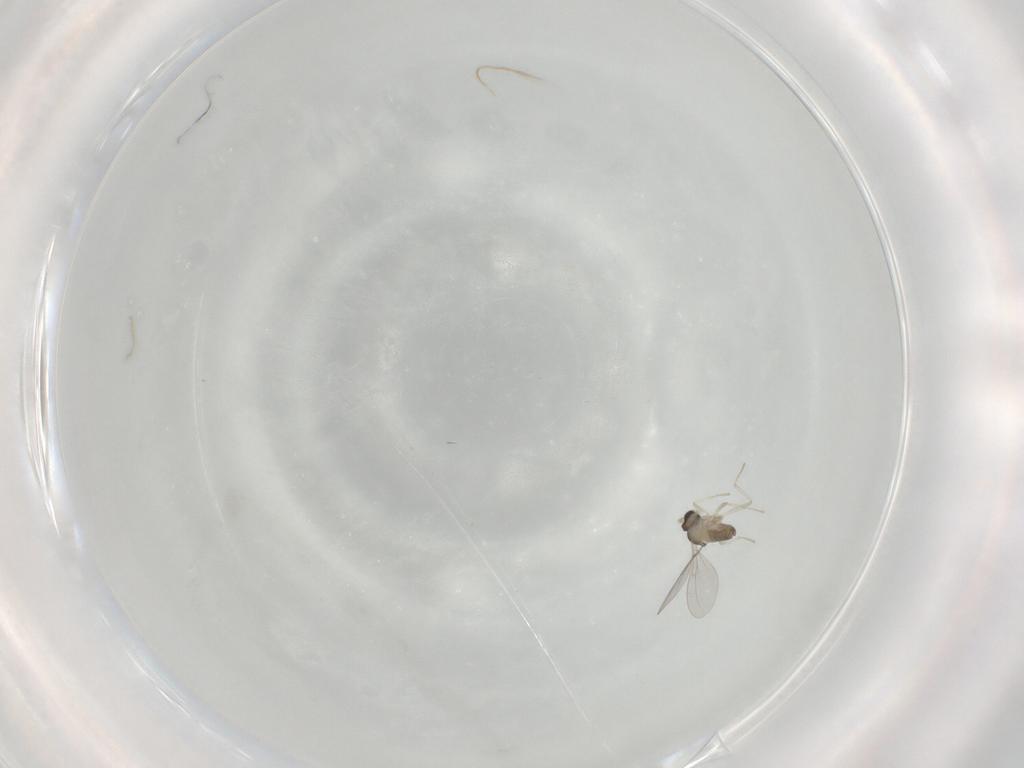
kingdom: Animalia
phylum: Arthropoda
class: Insecta
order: Diptera
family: Cecidomyiidae
